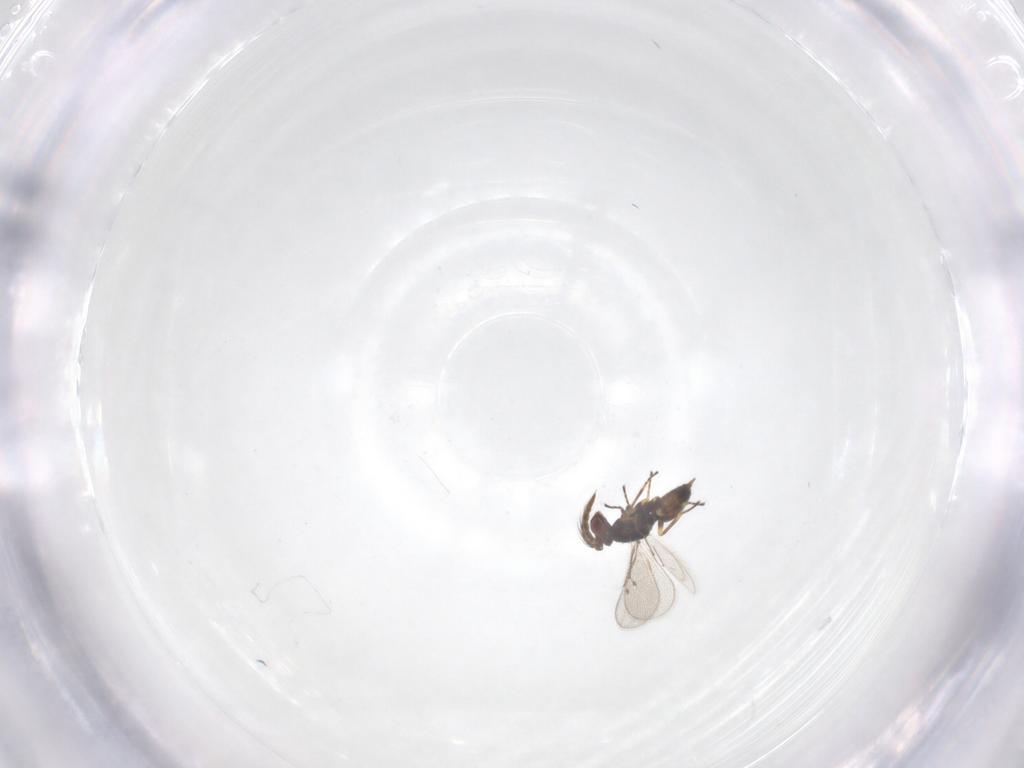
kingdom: Animalia
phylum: Arthropoda
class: Insecta
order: Hymenoptera
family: Eulophidae
